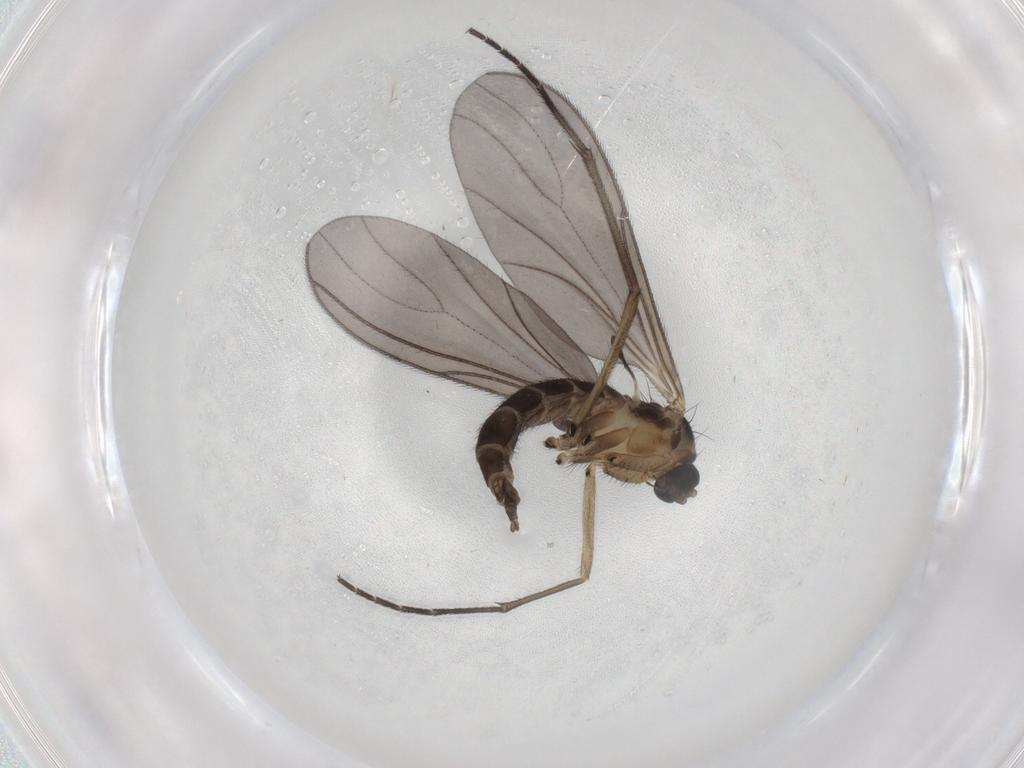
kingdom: Animalia
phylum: Arthropoda
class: Insecta
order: Diptera
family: Sciaridae
